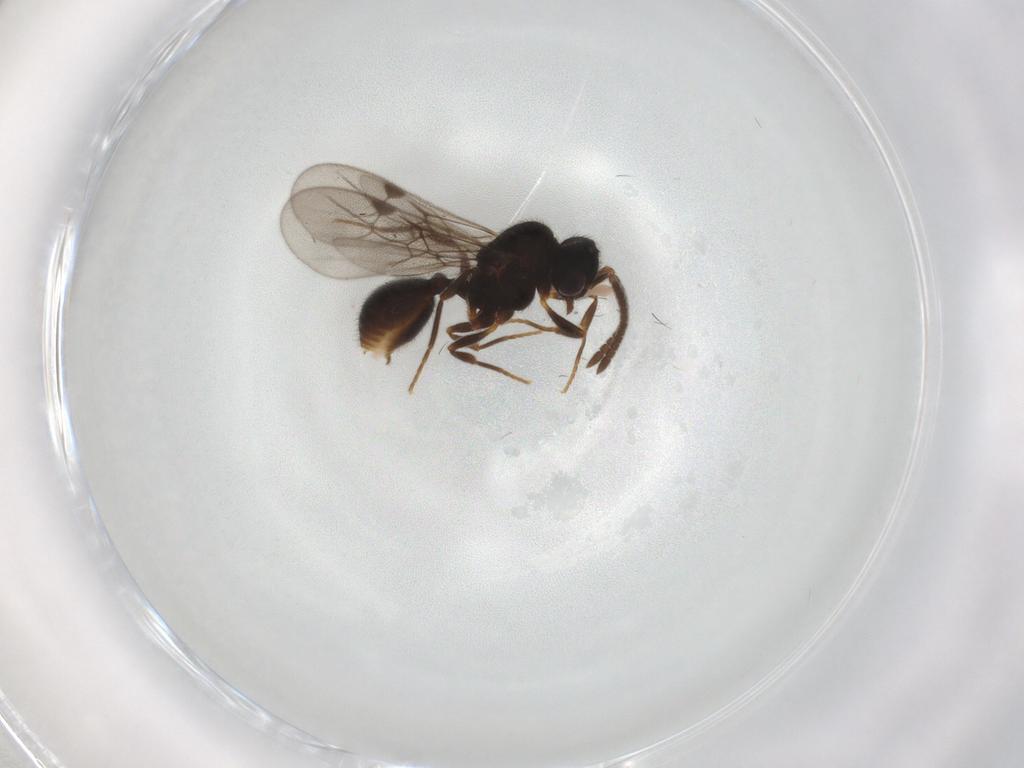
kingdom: Animalia
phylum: Arthropoda
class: Insecta
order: Hymenoptera
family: Formicidae
